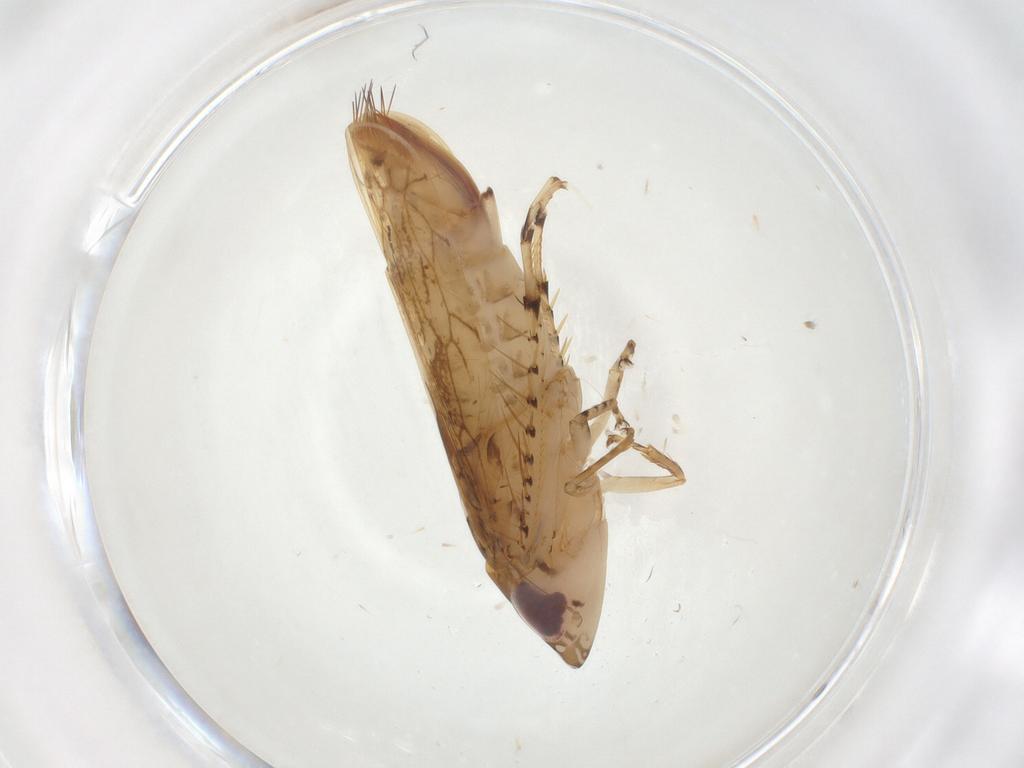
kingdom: Animalia
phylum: Arthropoda
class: Insecta
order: Hemiptera
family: Cicadellidae
